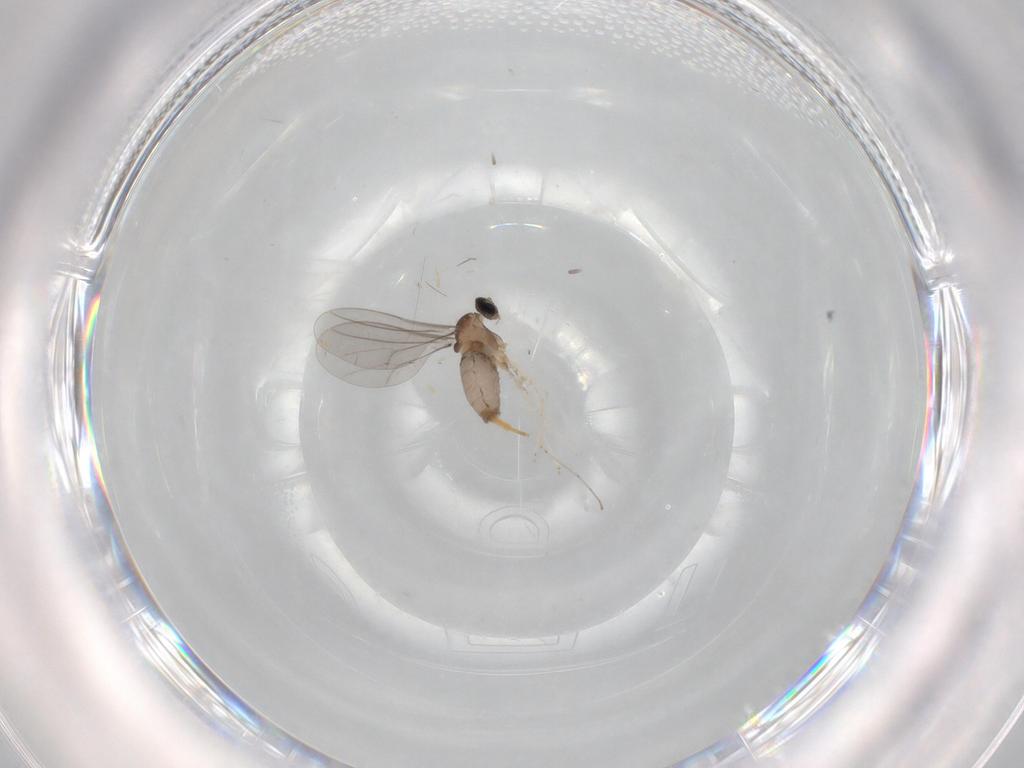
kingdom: Animalia
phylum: Arthropoda
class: Insecta
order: Diptera
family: Cecidomyiidae
